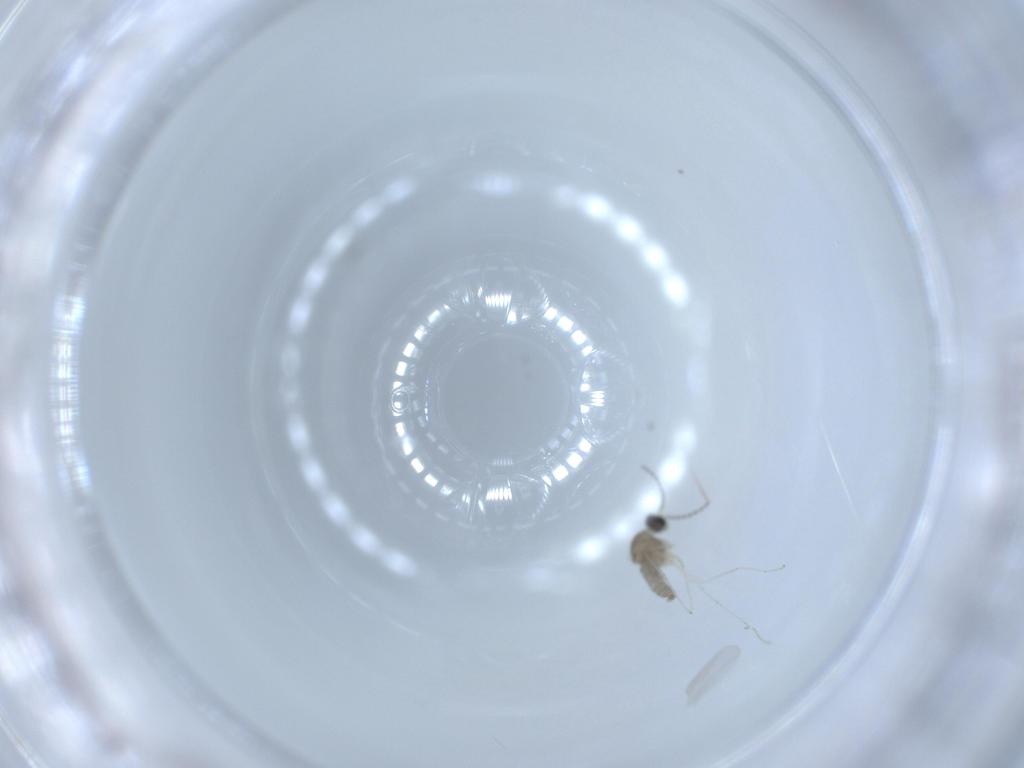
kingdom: Animalia
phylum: Arthropoda
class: Insecta
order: Diptera
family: Cecidomyiidae
